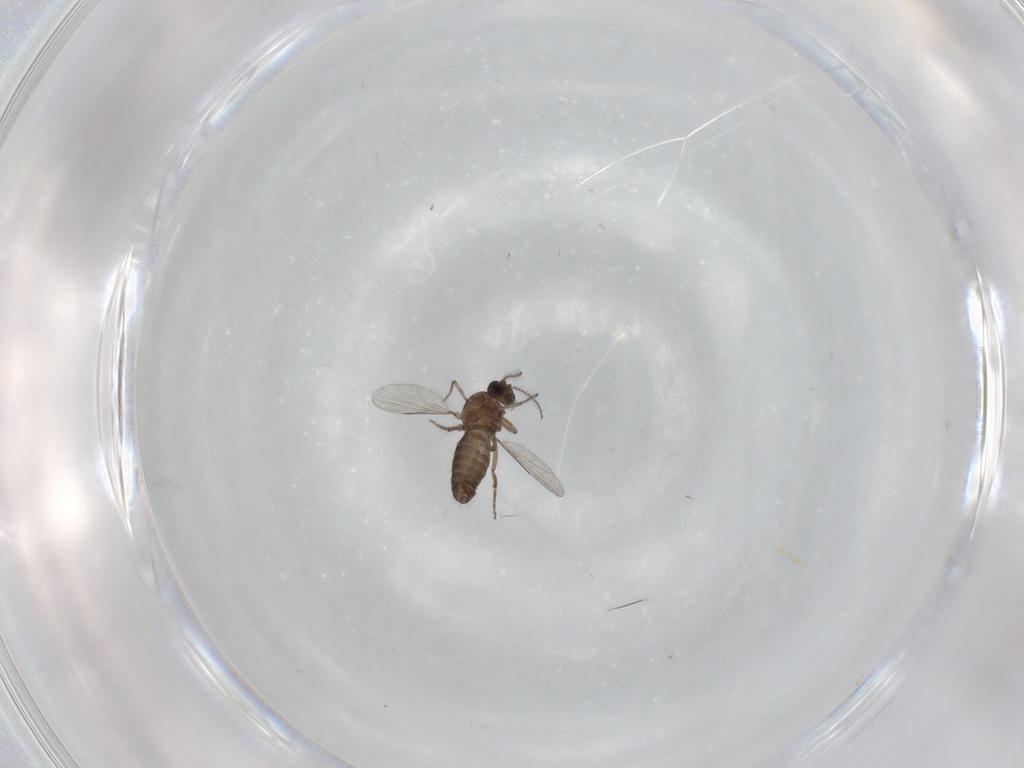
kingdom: Animalia
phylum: Arthropoda
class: Insecta
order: Diptera
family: Ceratopogonidae
